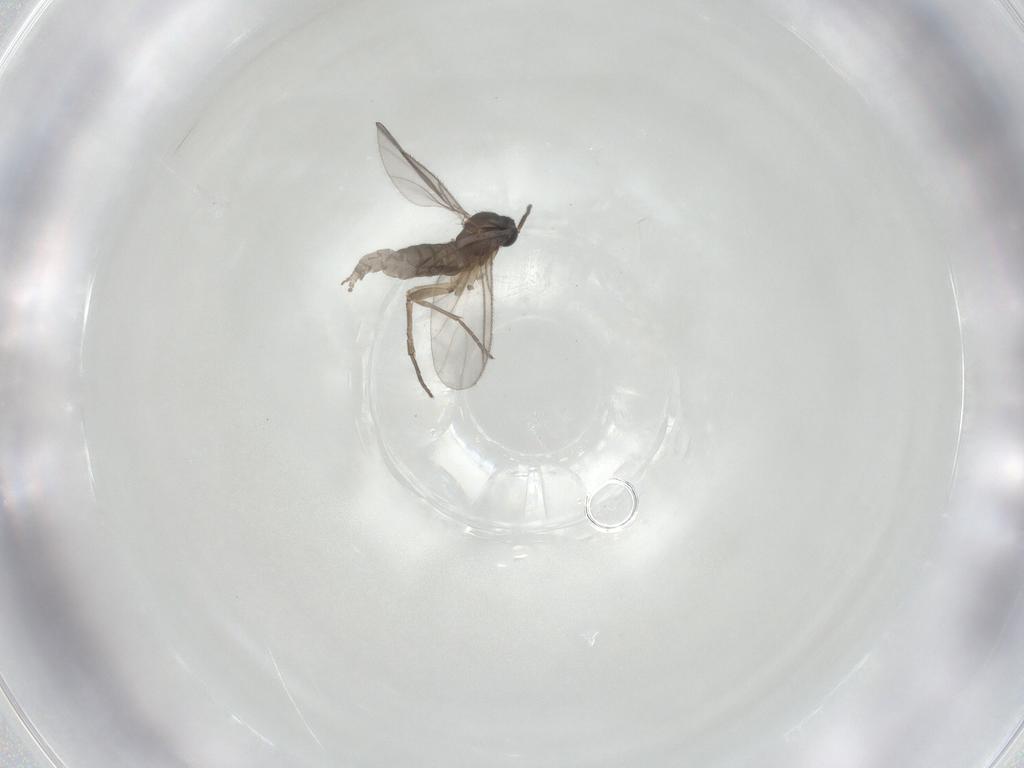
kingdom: Animalia
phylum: Arthropoda
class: Insecta
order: Diptera
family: Sciaridae
